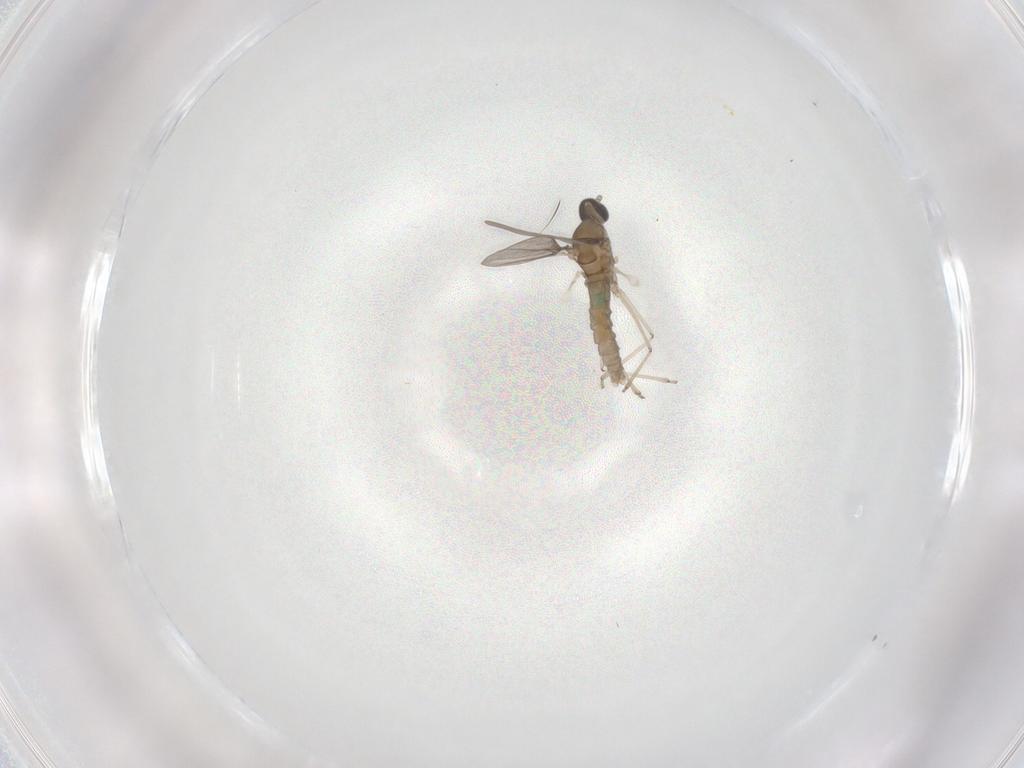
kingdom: Animalia
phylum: Arthropoda
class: Insecta
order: Diptera
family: Cecidomyiidae
